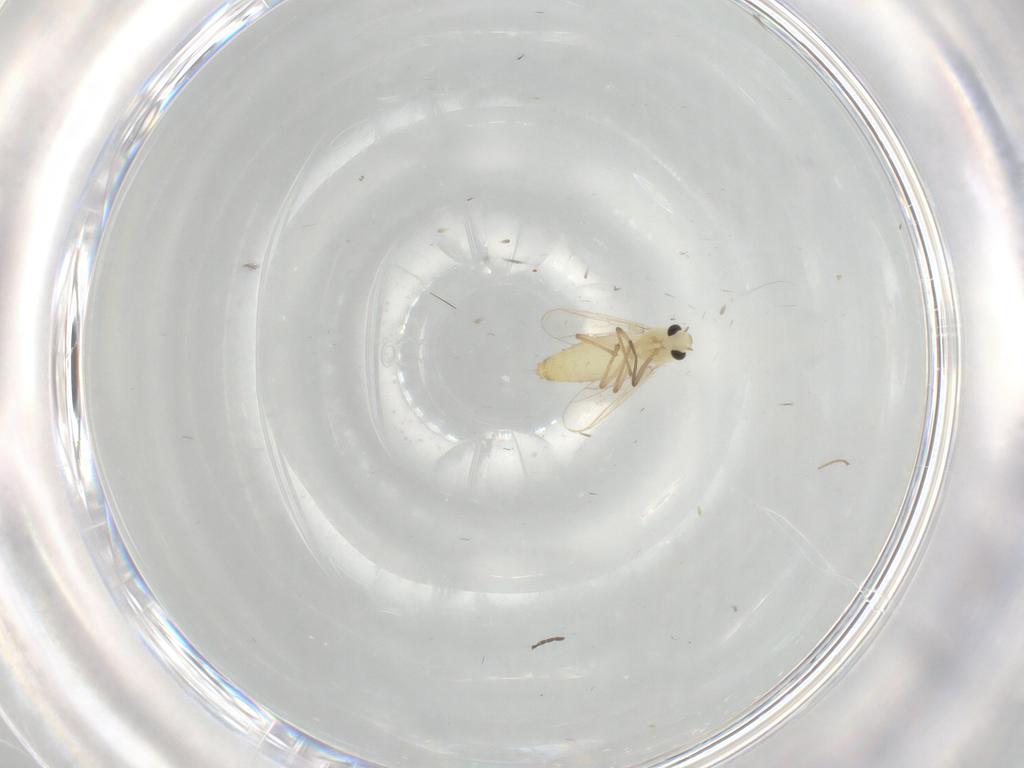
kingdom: Animalia
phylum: Arthropoda
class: Insecta
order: Diptera
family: Chironomidae
